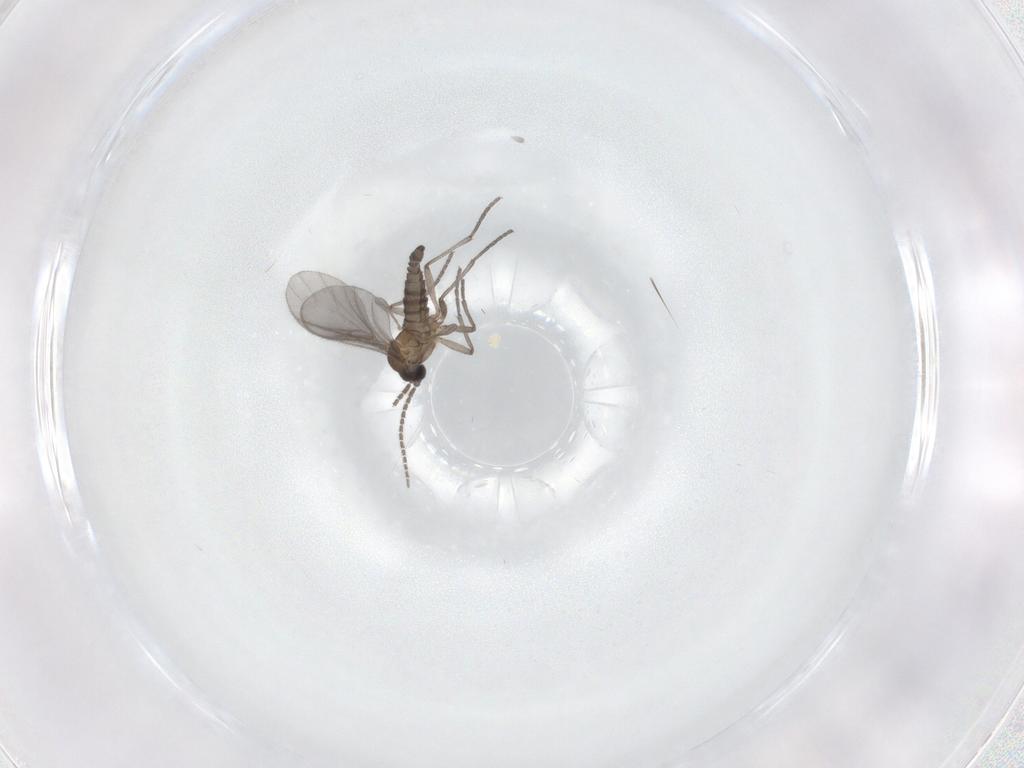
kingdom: Animalia
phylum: Arthropoda
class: Insecta
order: Diptera
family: Sciaridae
